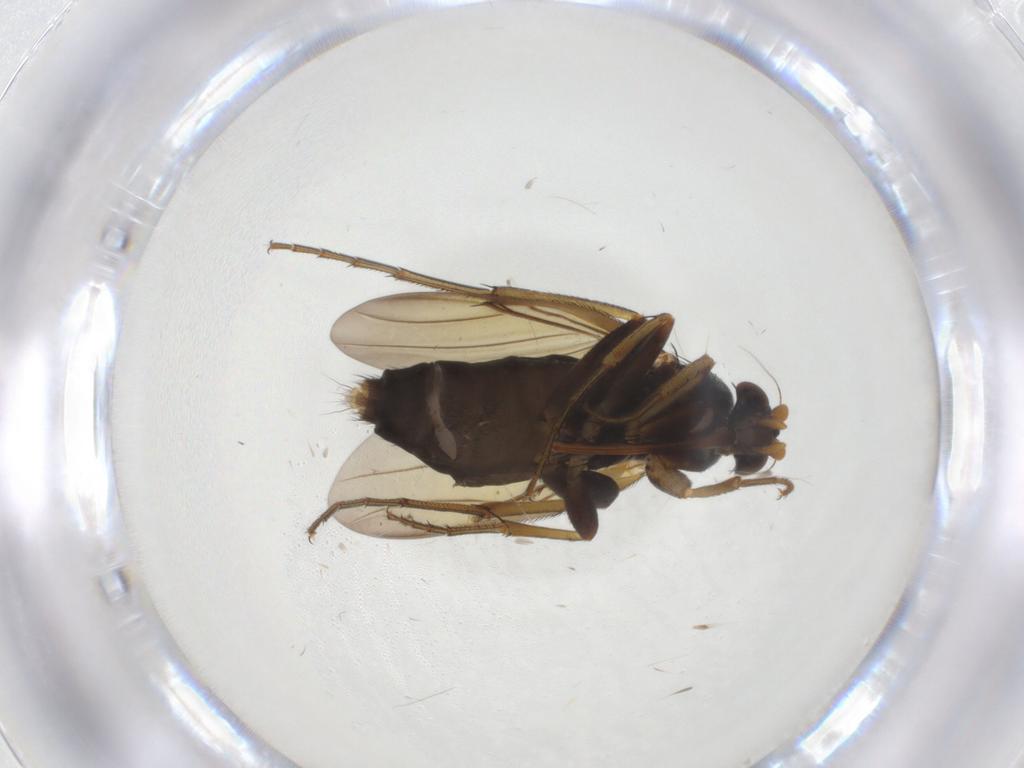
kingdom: Animalia
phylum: Arthropoda
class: Insecta
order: Diptera
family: Phoridae
